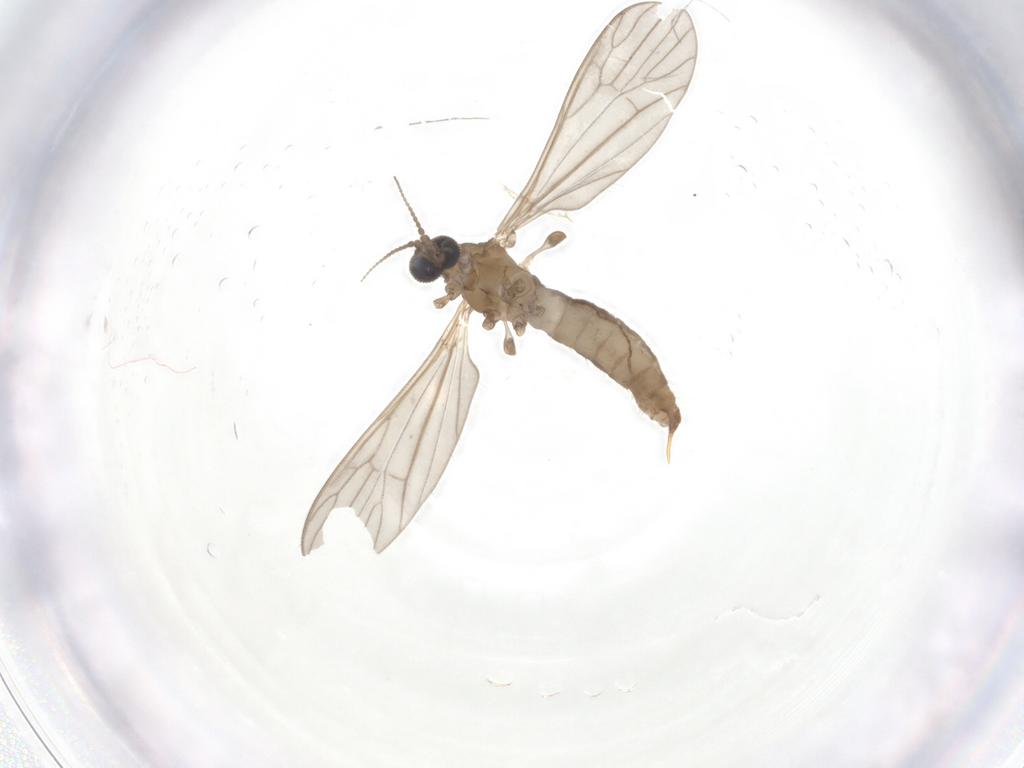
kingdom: Animalia
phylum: Arthropoda
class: Insecta
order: Diptera
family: Limoniidae
